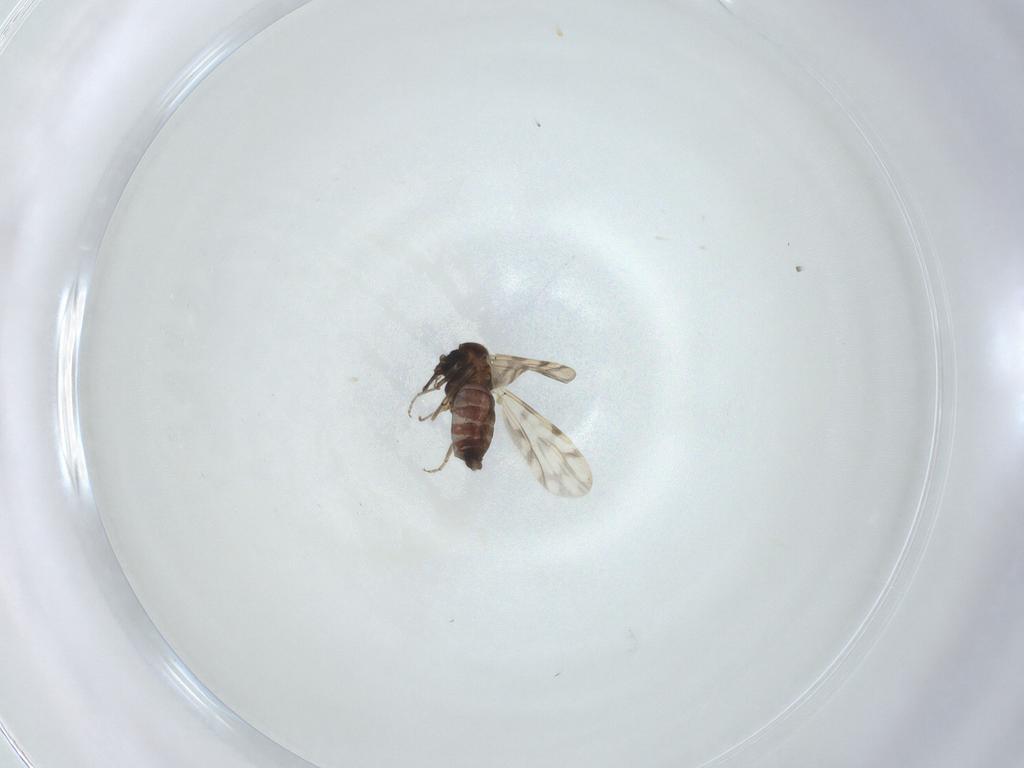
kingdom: Animalia
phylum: Arthropoda
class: Insecta
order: Diptera
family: Ceratopogonidae
